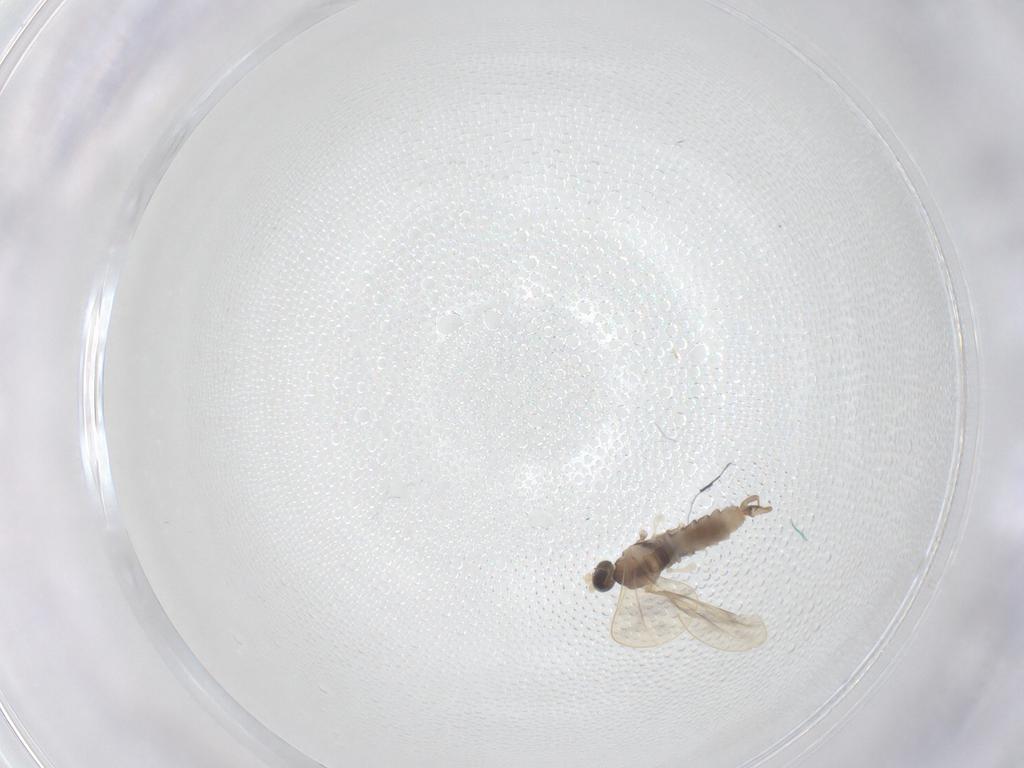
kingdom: Animalia
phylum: Arthropoda
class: Insecta
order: Diptera
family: Cecidomyiidae
